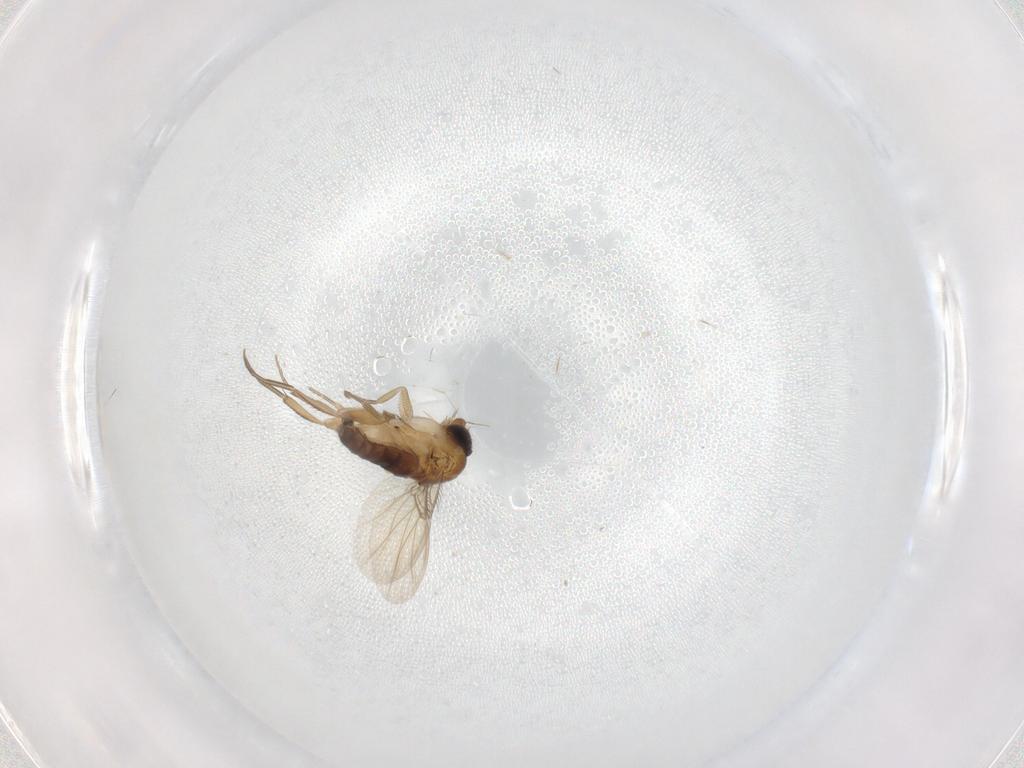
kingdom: Animalia
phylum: Arthropoda
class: Insecta
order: Diptera
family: Phoridae
